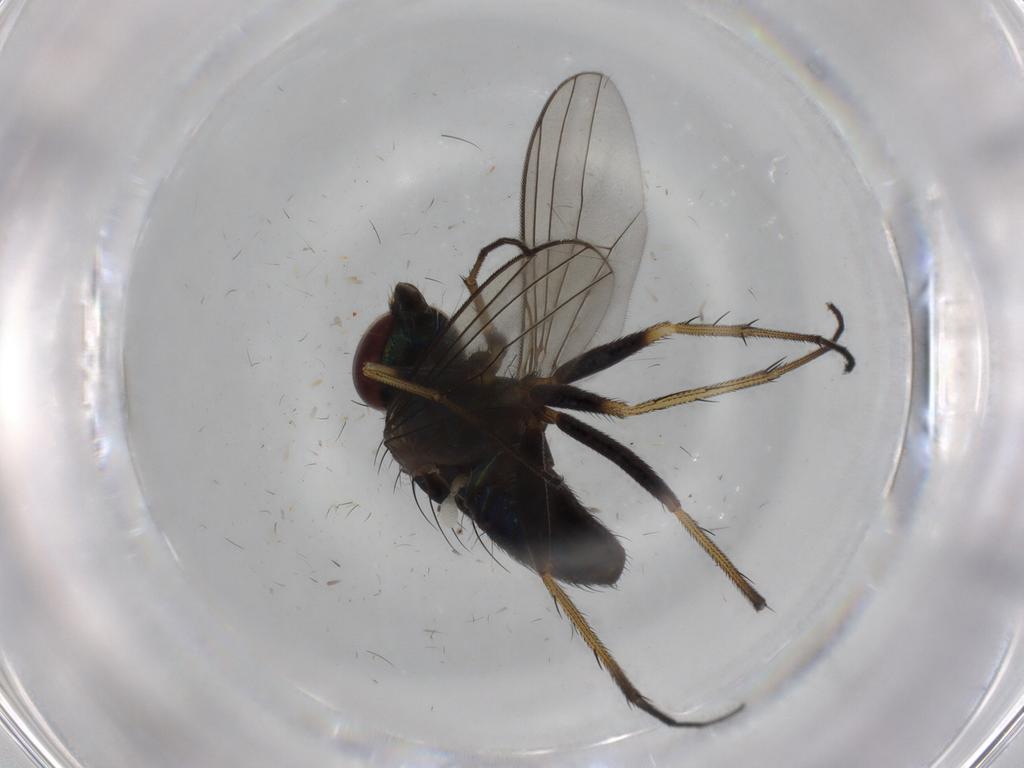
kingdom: Animalia
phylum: Arthropoda
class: Insecta
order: Diptera
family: Dolichopodidae
